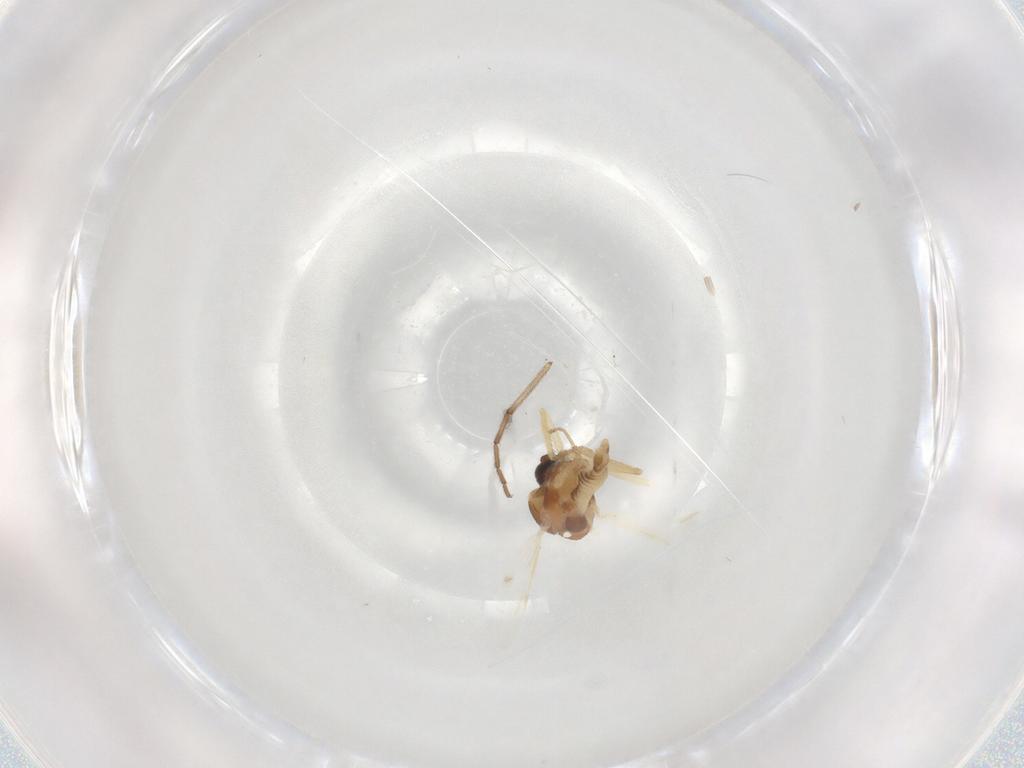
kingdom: Animalia
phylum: Arthropoda
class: Insecta
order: Diptera
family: Ceratopogonidae
